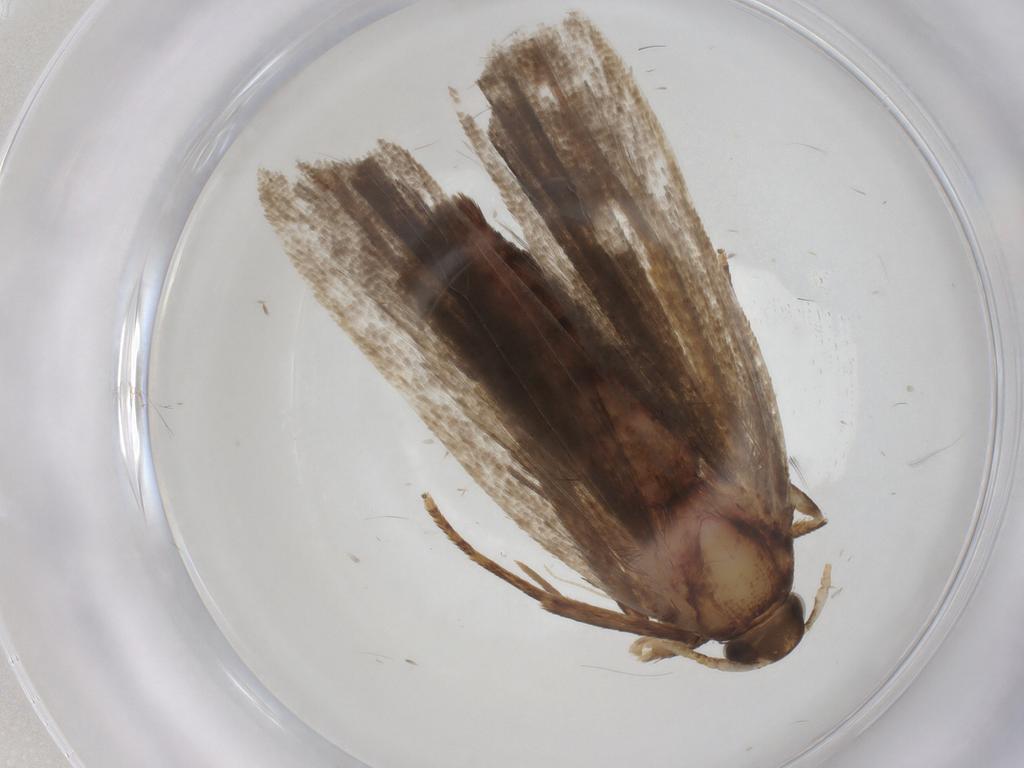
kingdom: Animalia
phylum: Arthropoda
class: Insecta
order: Lepidoptera
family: Autostichidae
